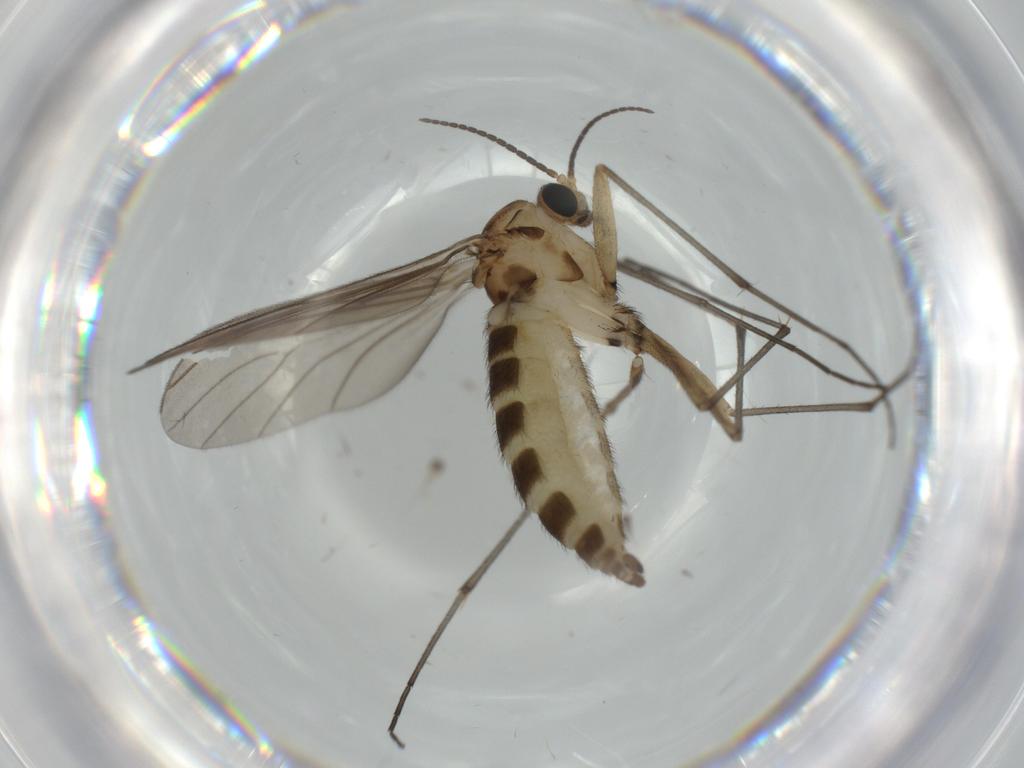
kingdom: Animalia
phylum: Arthropoda
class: Insecta
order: Diptera
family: Sciaridae
